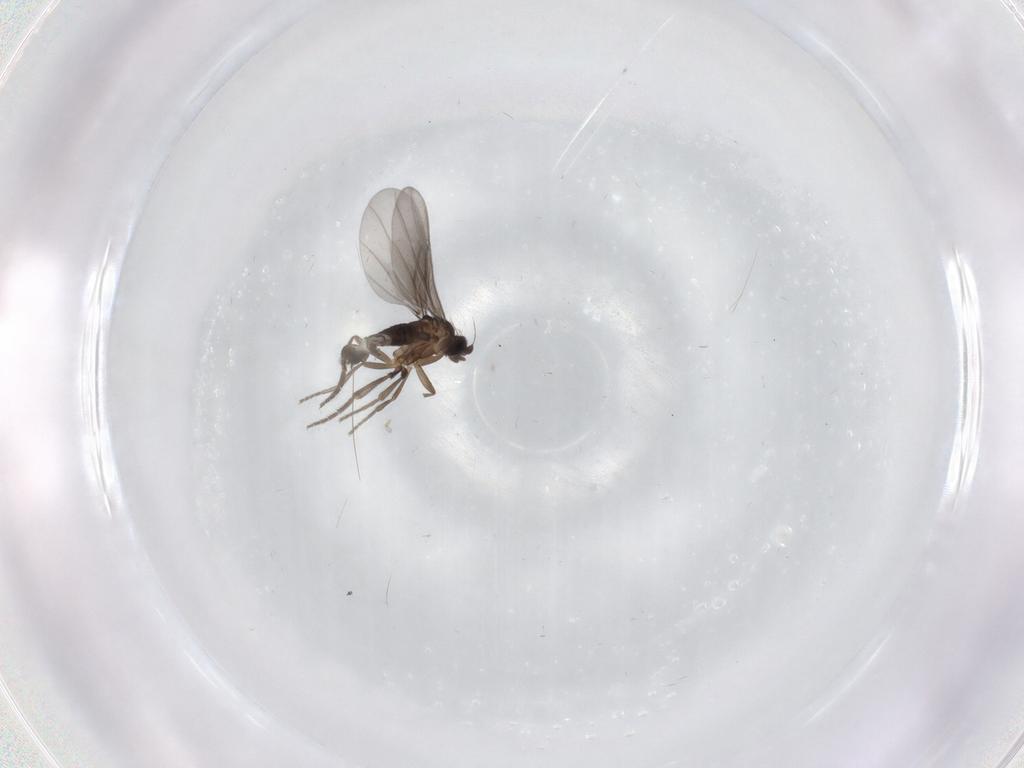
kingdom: Animalia
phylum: Arthropoda
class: Insecta
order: Diptera
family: Phoridae
